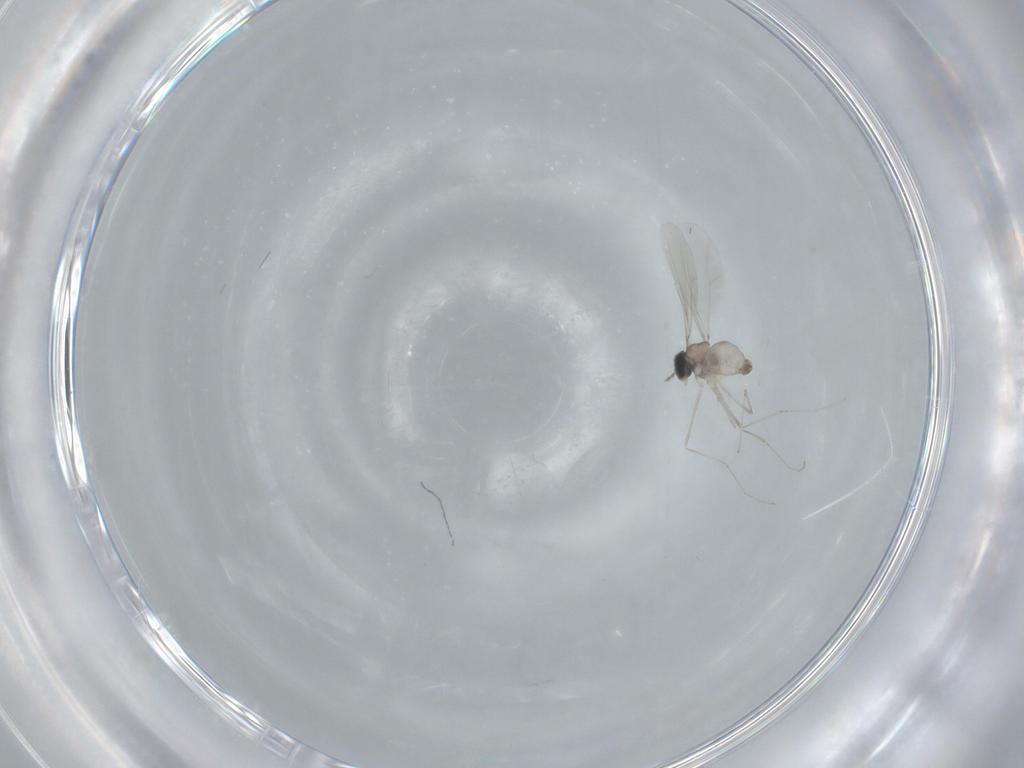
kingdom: Animalia
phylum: Arthropoda
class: Insecta
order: Diptera
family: Cecidomyiidae
